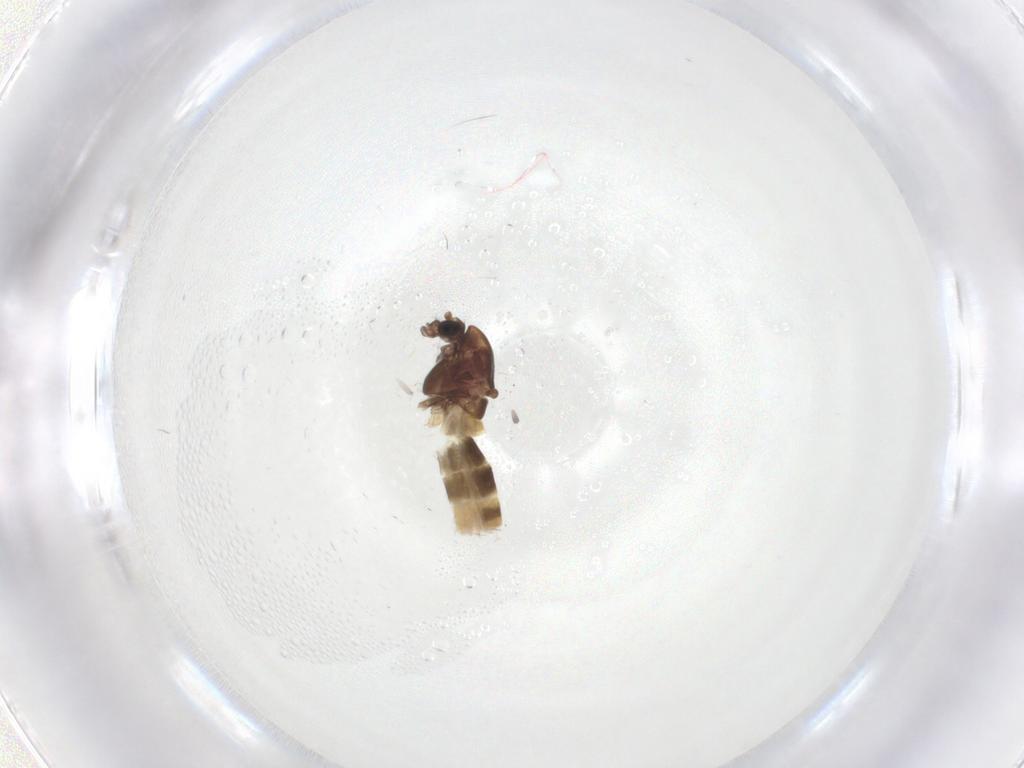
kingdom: Animalia
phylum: Arthropoda
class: Insecta
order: Diptera
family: Chironomidae
